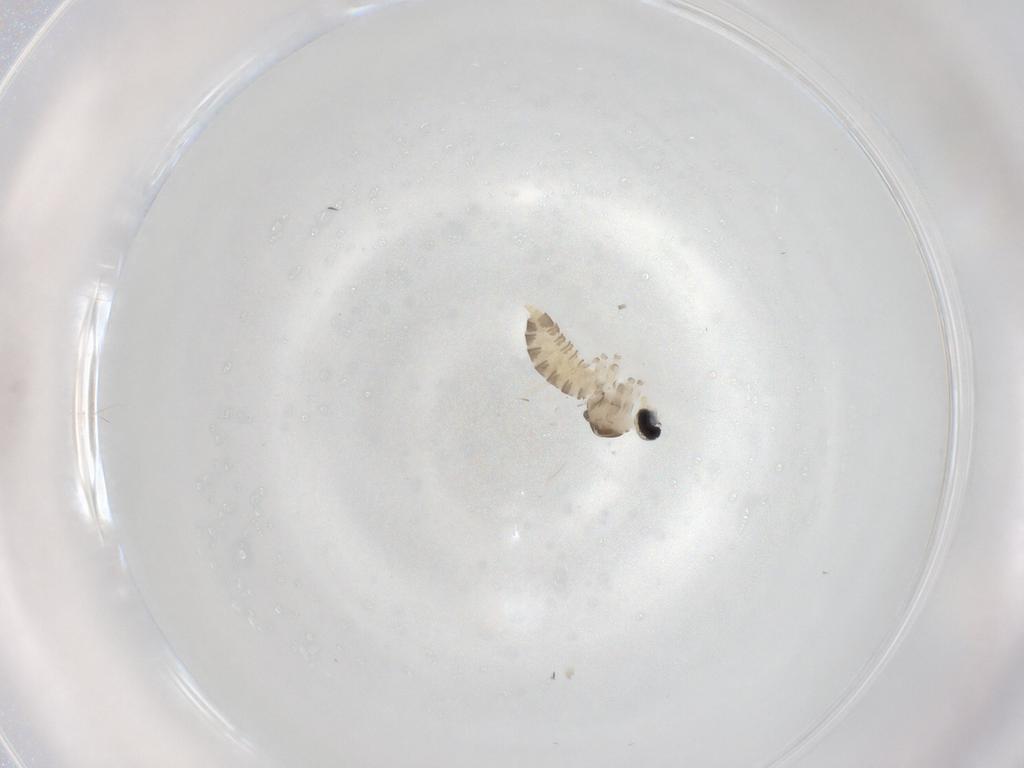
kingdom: Animalia
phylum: Arthropoda
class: Insecta
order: Diptera
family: Cecidomyiidae
